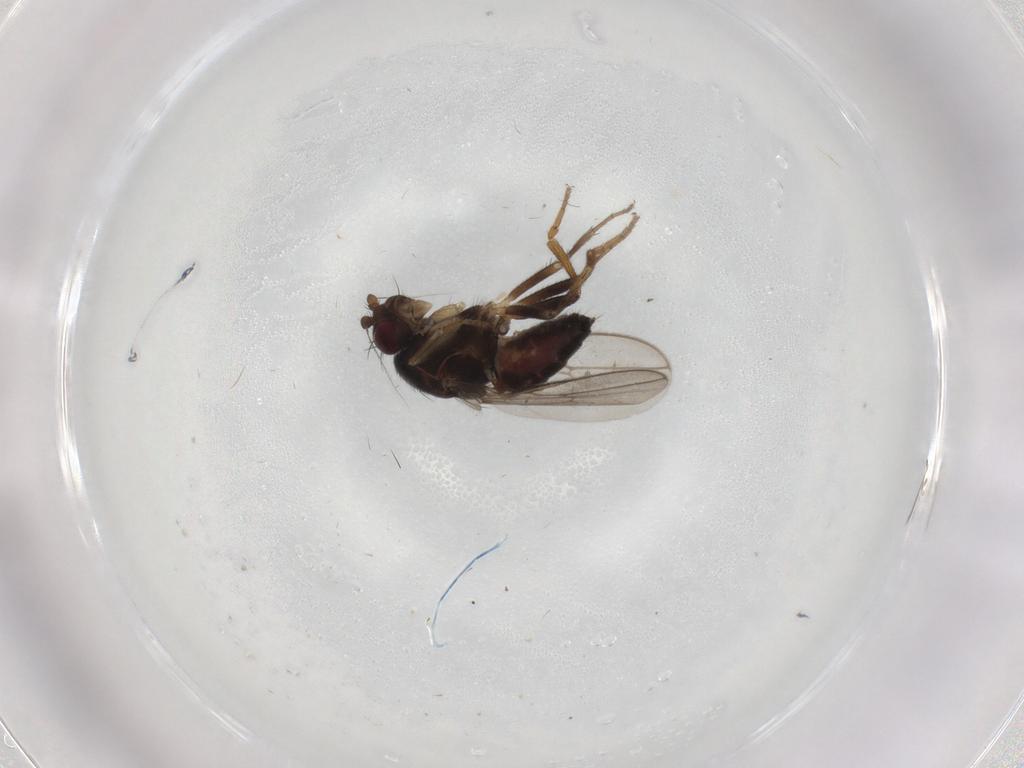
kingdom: Animalia
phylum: Arthropoda
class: Insecta
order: Diptera
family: Sphaeroceridae
